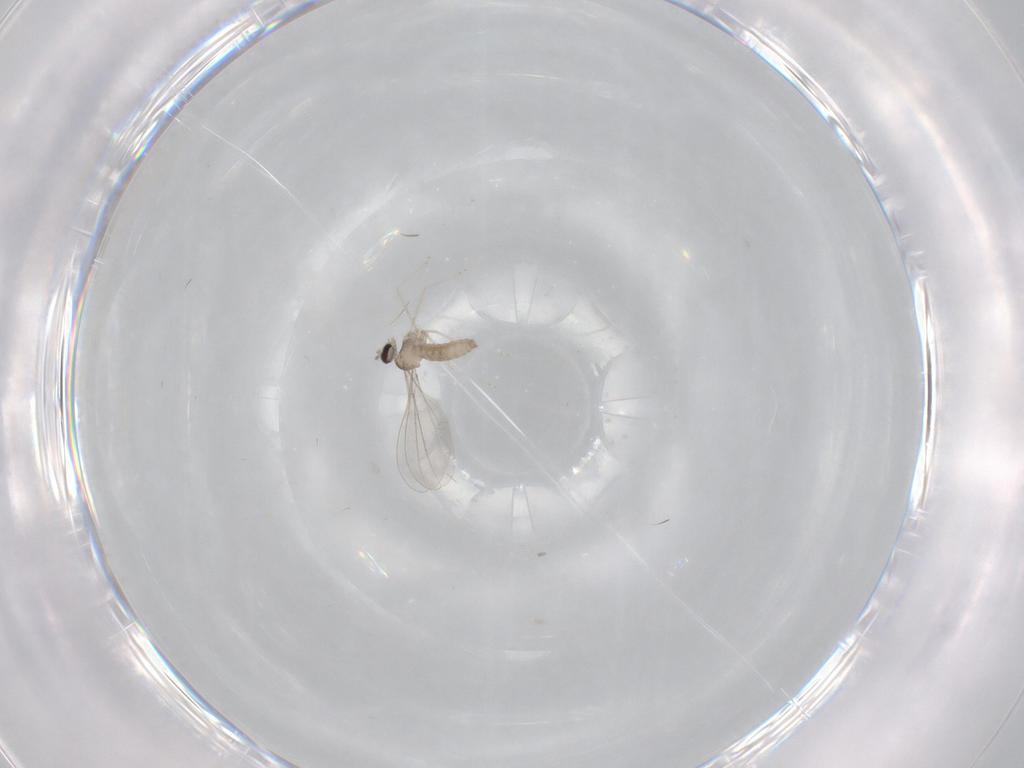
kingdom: Animalia
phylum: Arthropoda
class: Insecta
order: Diptera
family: Cecidomyiidae
